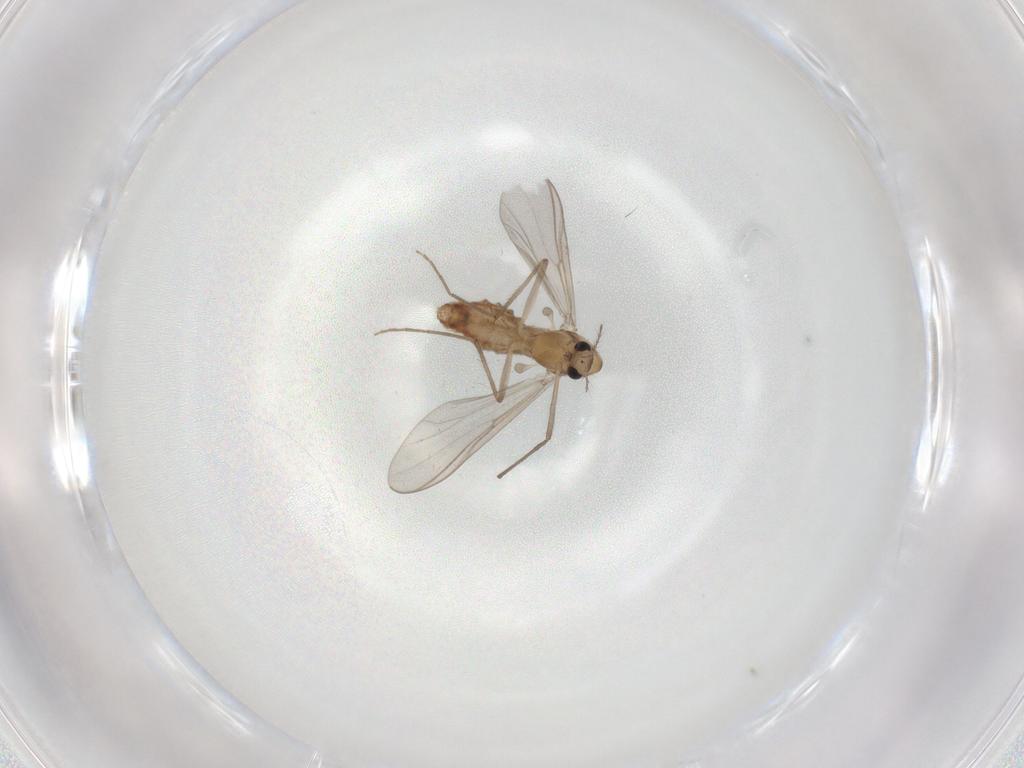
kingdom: Animalia
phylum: Arthropoda
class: Insecta
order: Diptera
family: Chironomidae
